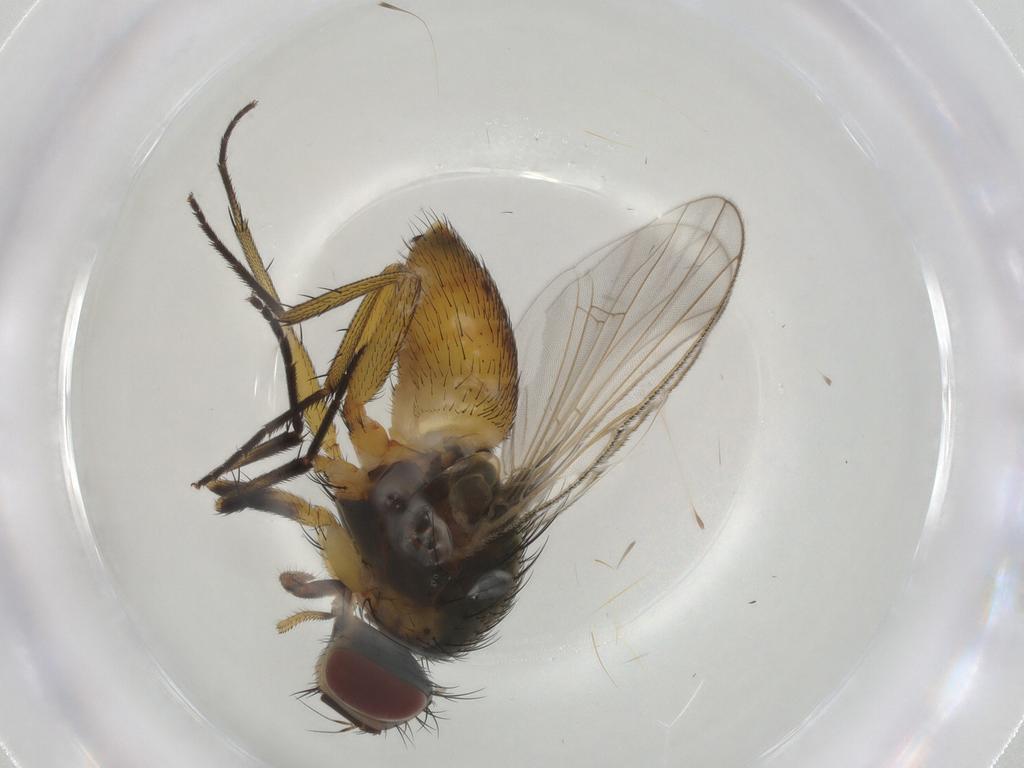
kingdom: Animalia
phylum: Arthropoda
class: Insecta
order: Diptera
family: Muscidae
